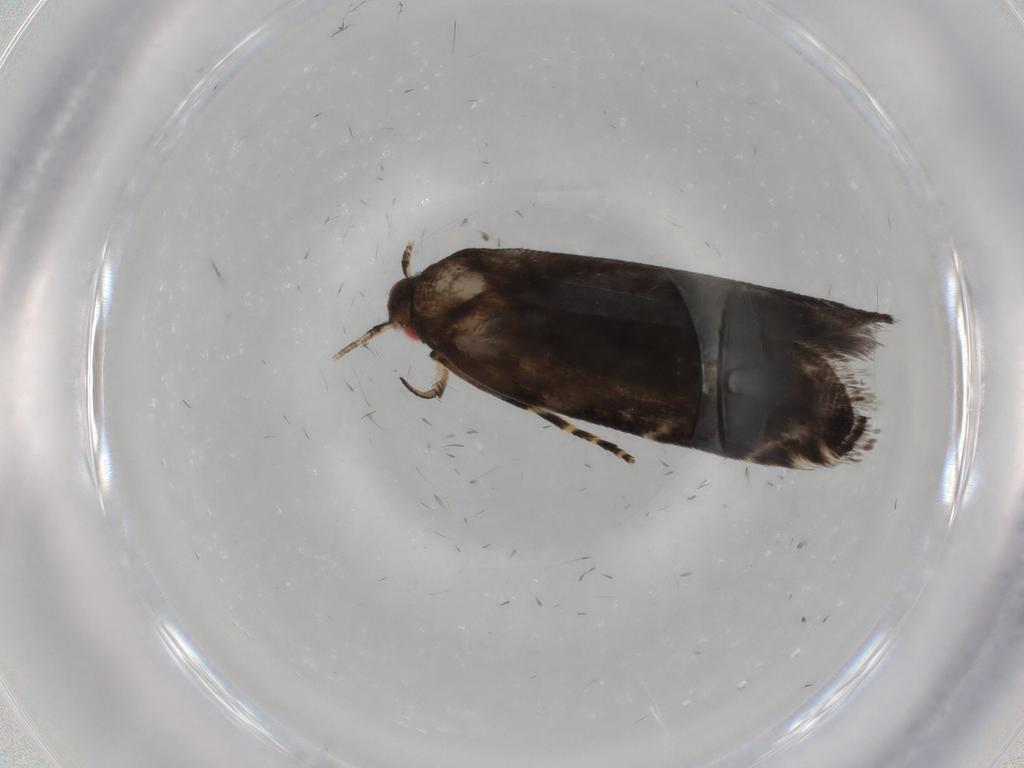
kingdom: Animalia
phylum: Arthropoda
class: Insecta
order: Lepidoptera
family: Crambidae
